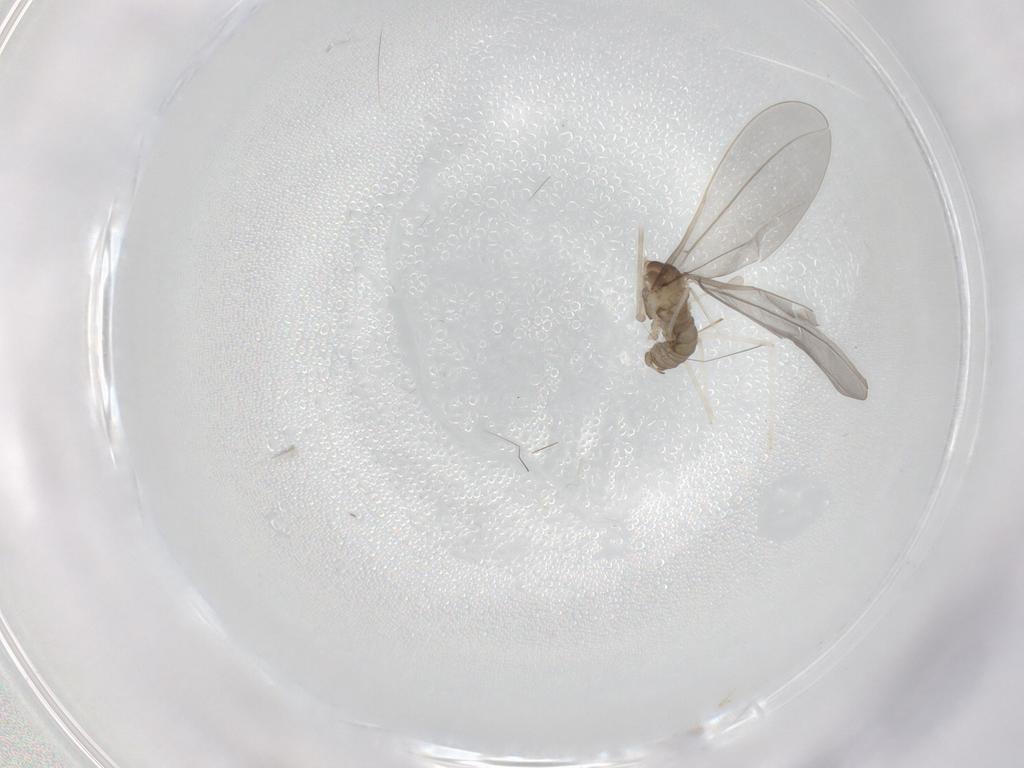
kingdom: Animalia
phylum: Arthropoda
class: Insecta
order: Diptera
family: Cecidomyiidae
